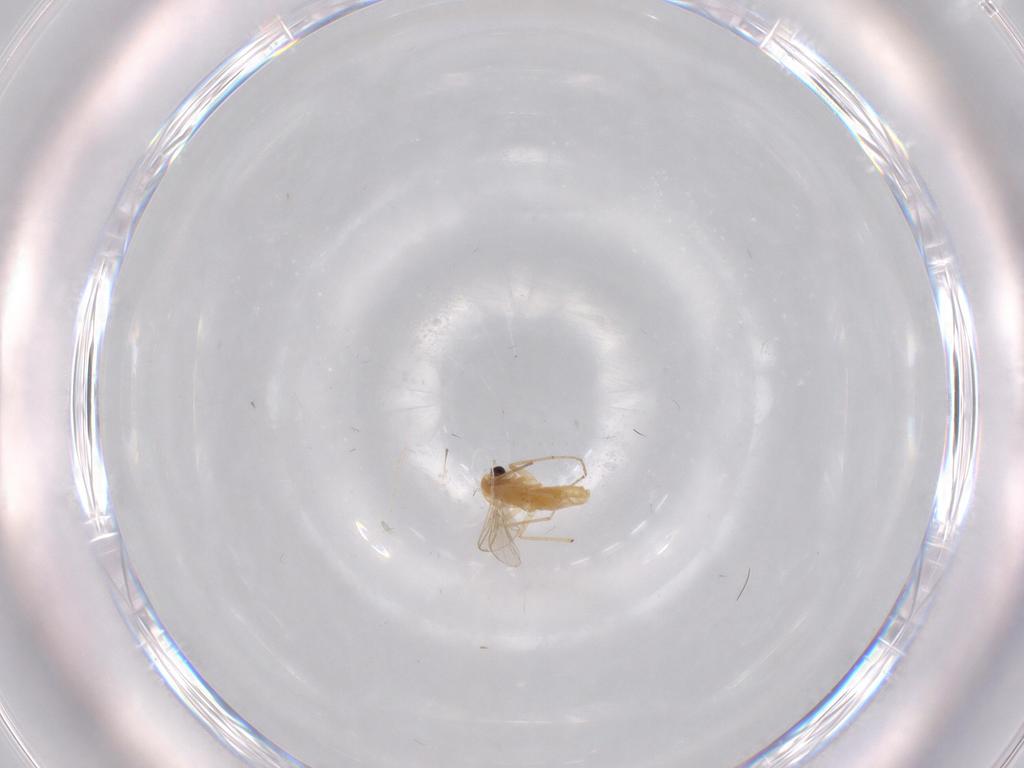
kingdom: Animalia
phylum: Arthropoda
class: Insecta
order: Diptera
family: Chironomidae
